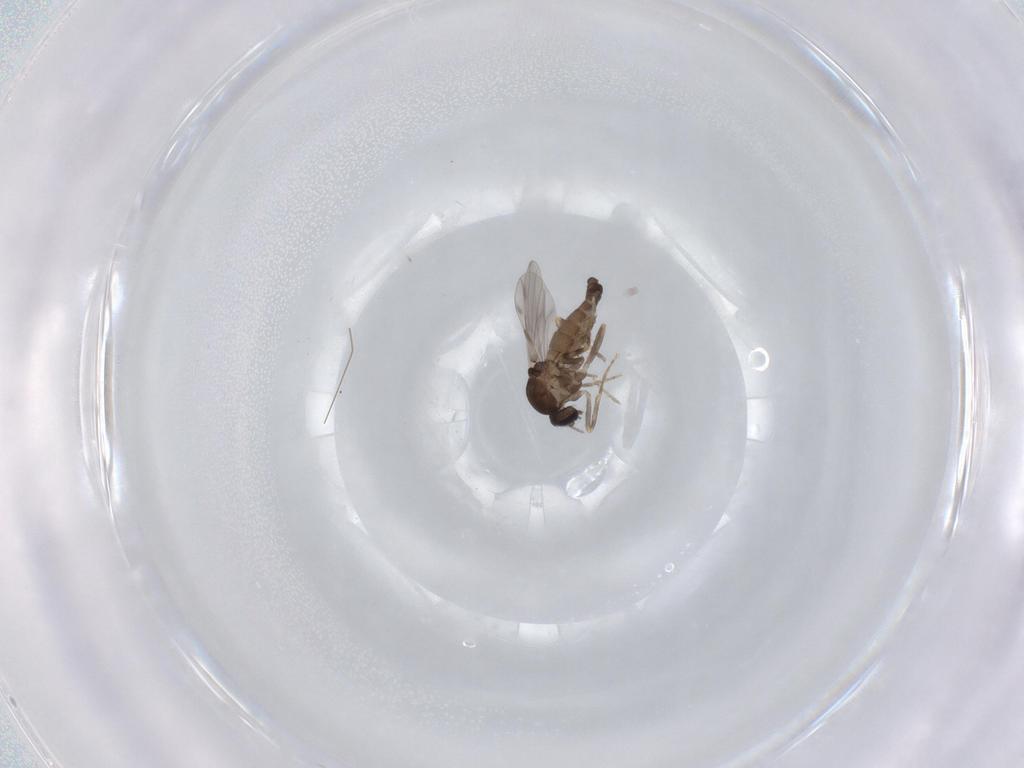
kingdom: Animalia
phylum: Arthropoda
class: Insecta
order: Diptera
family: Ceratopogonidae
